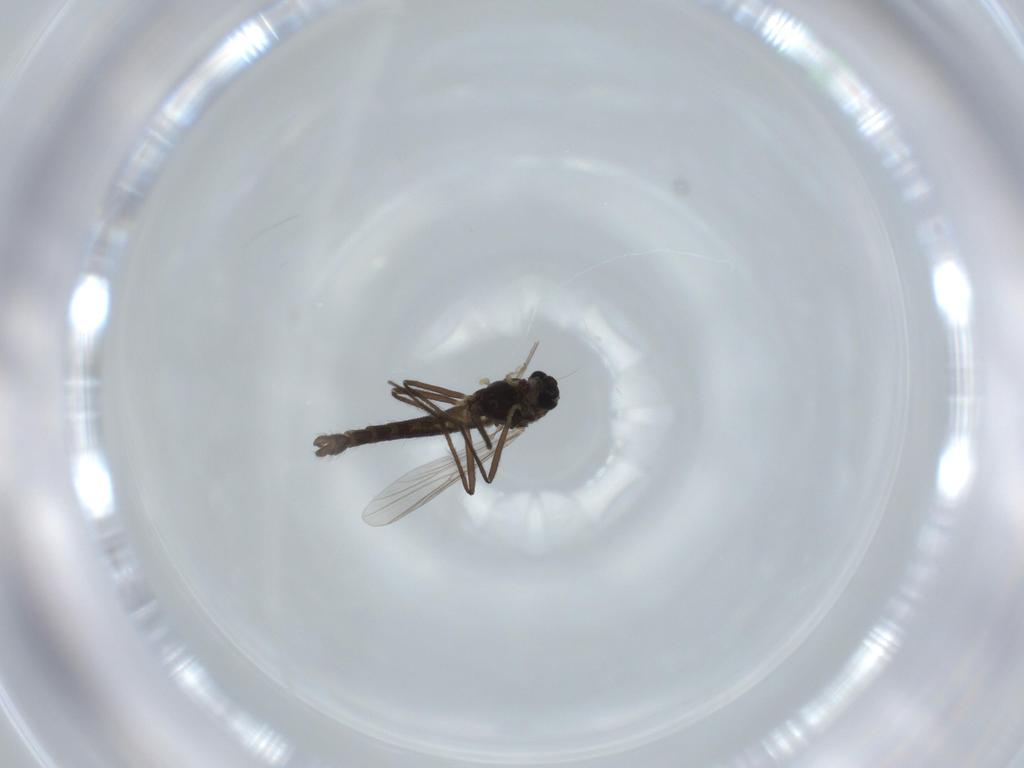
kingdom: Animalia
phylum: Arthropoda
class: Insecta
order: Diptera
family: Chironomidae
